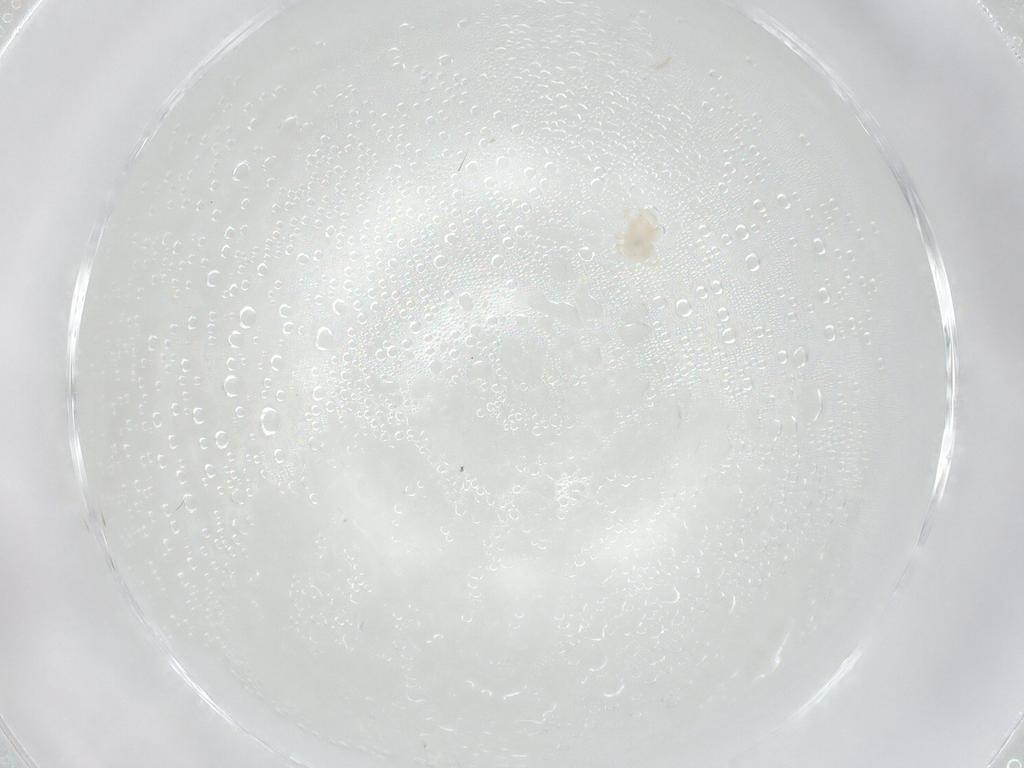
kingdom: Animalia
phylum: Arthropoda
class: Arachnida
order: Mesostigmata
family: Phytoseiidae
